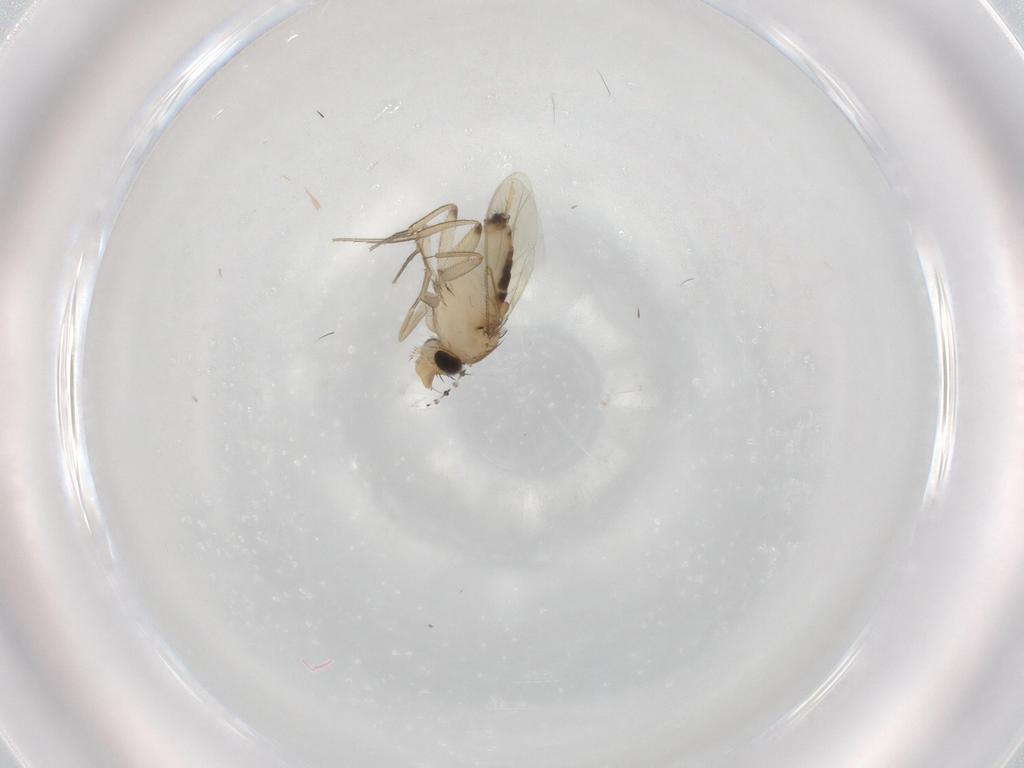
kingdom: Animalia
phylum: Arthropoda
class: Insecta
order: Diptera
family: Phoridae
